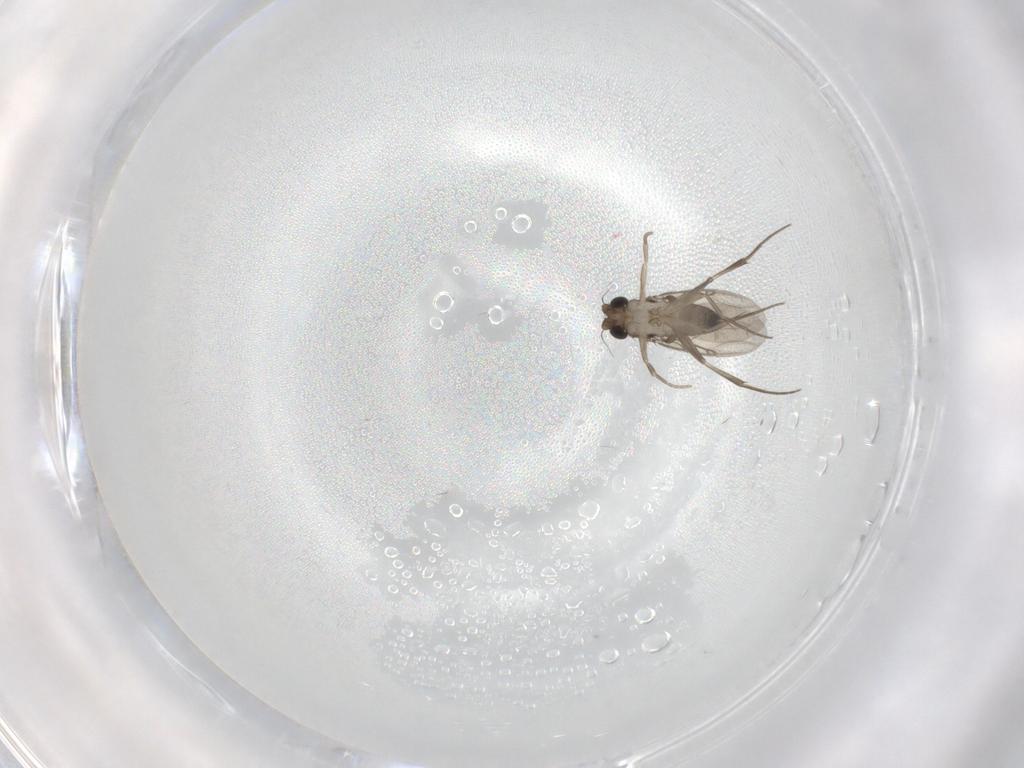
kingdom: Animalia
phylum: Arthropoda
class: Insecta
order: Diptera
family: Phoridae
